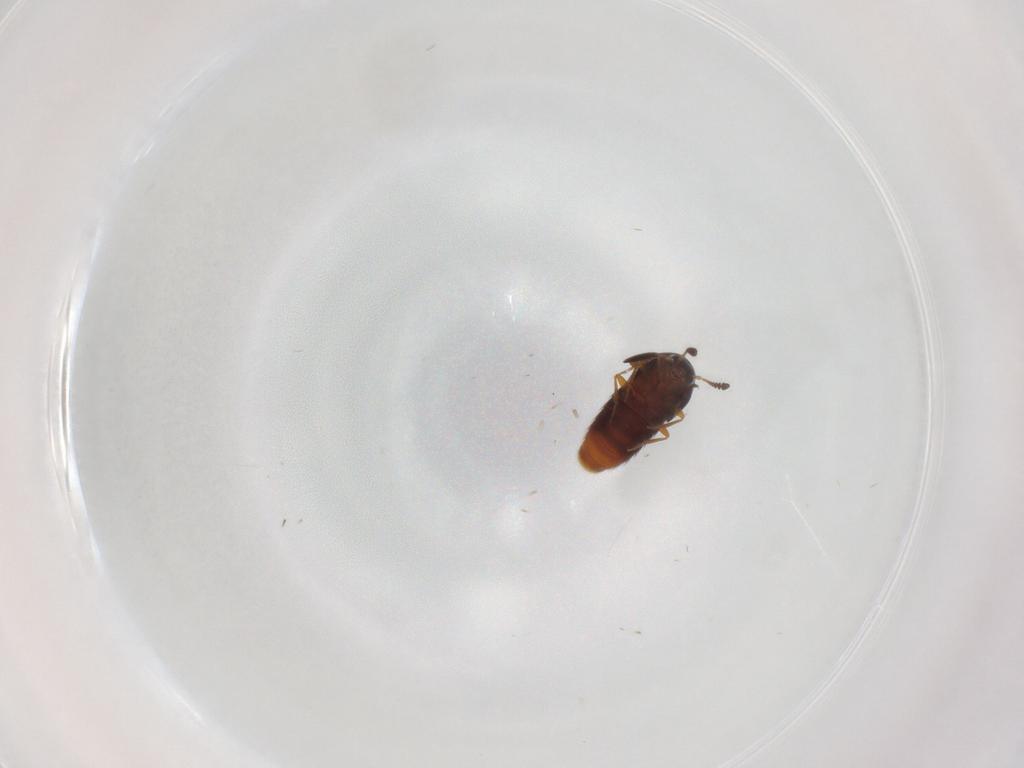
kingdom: Animalia
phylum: Arthropoda
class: Insecta
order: Coleoptera
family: Staphylinidae
